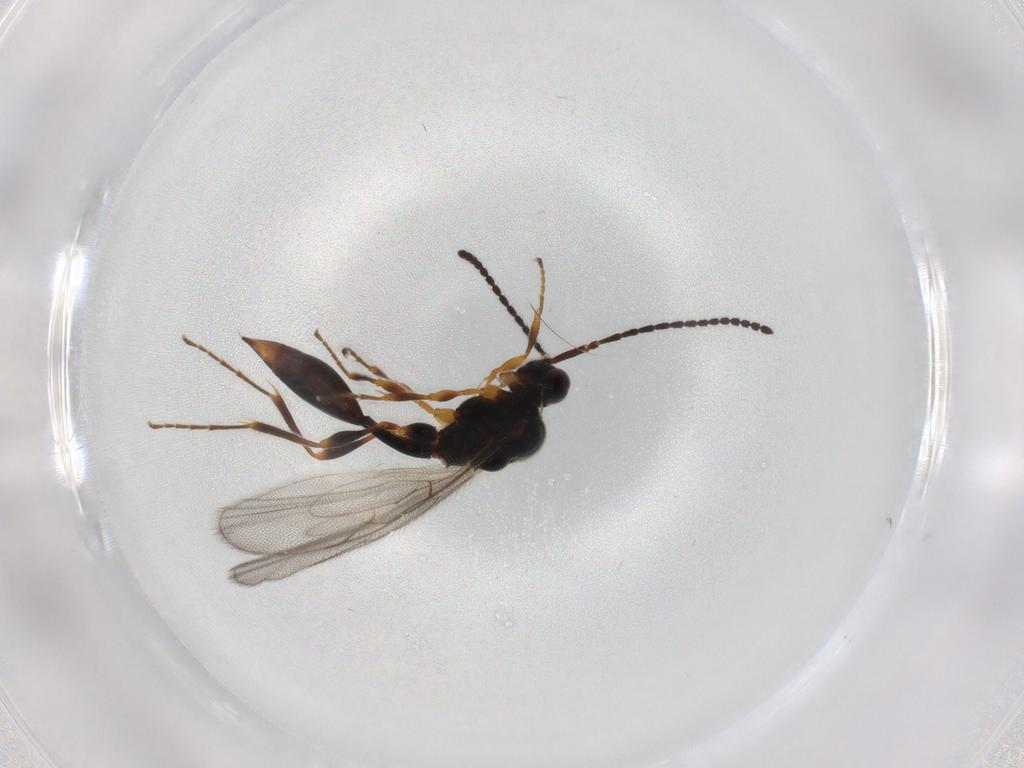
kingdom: Animalia
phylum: Arthropoda
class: Insecta
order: Hymenoptera
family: Diapriidae
